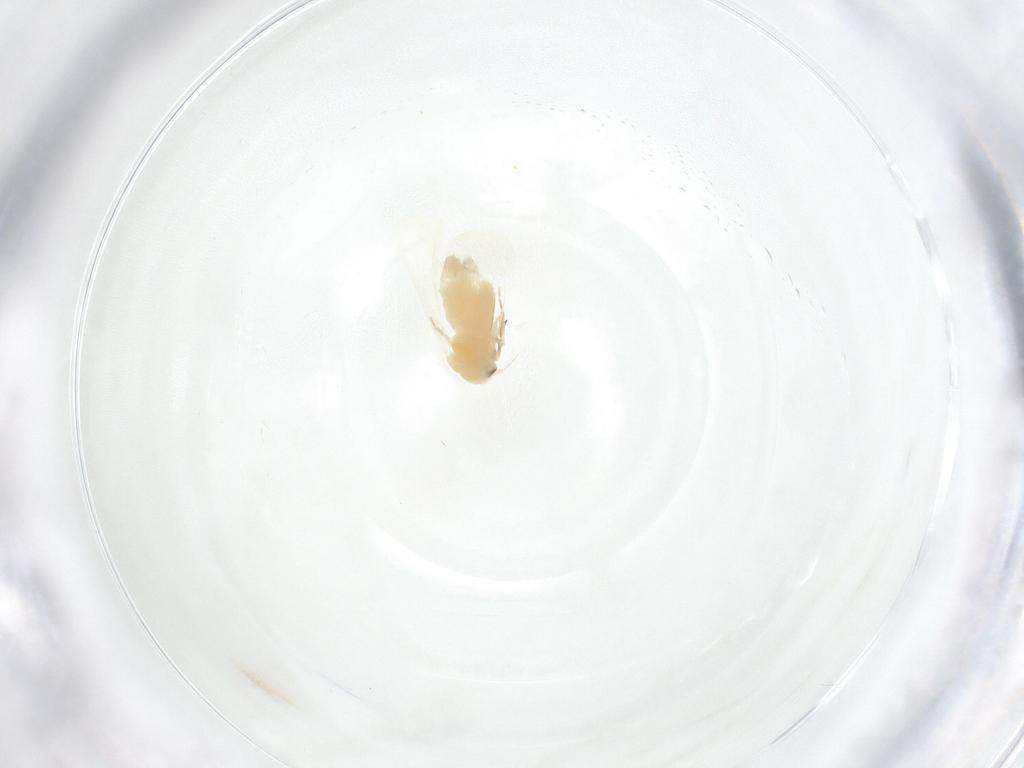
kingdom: Animalia
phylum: Arthropoda
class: Insecta
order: Hemiptera
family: Aleyrodidae
